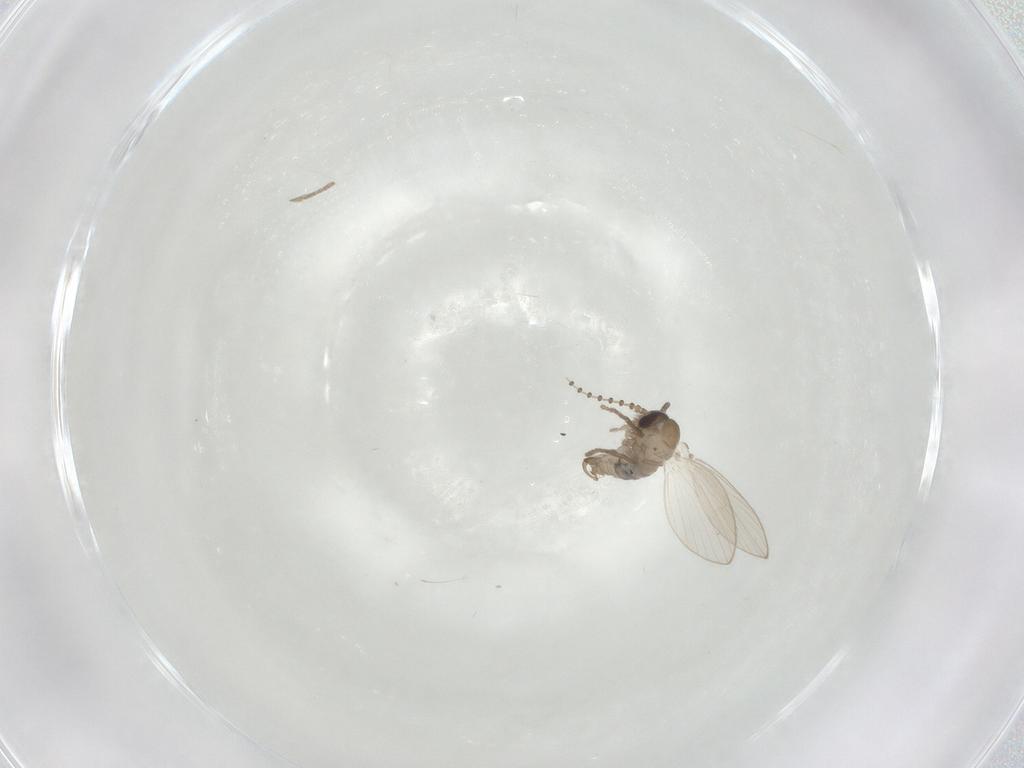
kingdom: Animalia
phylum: Arthropoda
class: Insecta
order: Diptera
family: Psychodidae
